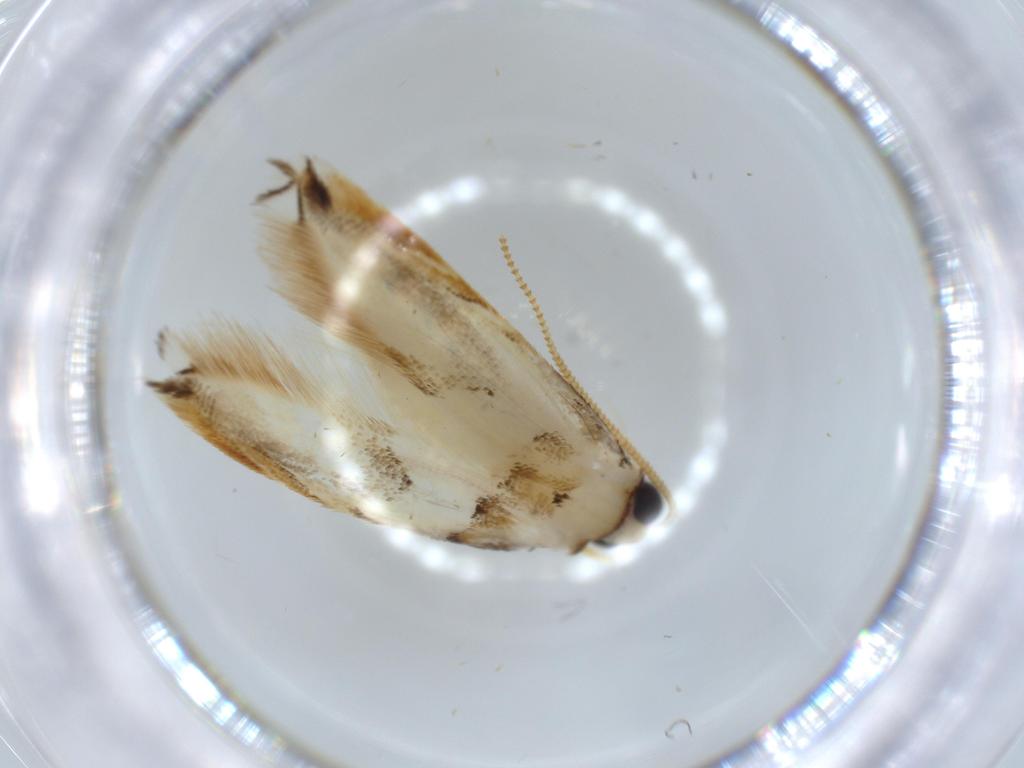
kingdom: Animalia
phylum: Arthropoda
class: Insecta
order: Lepidoptera
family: Tineidae
